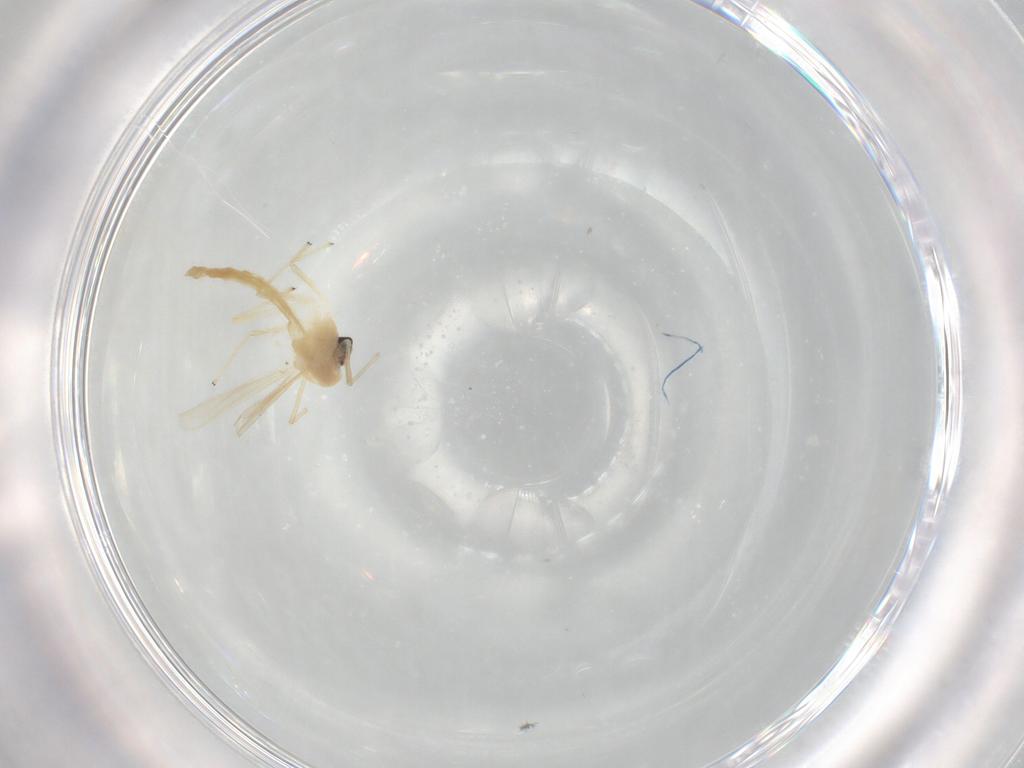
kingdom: Animalia
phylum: Arthropoda
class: Insecta
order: Diptera
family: Chironomidae
